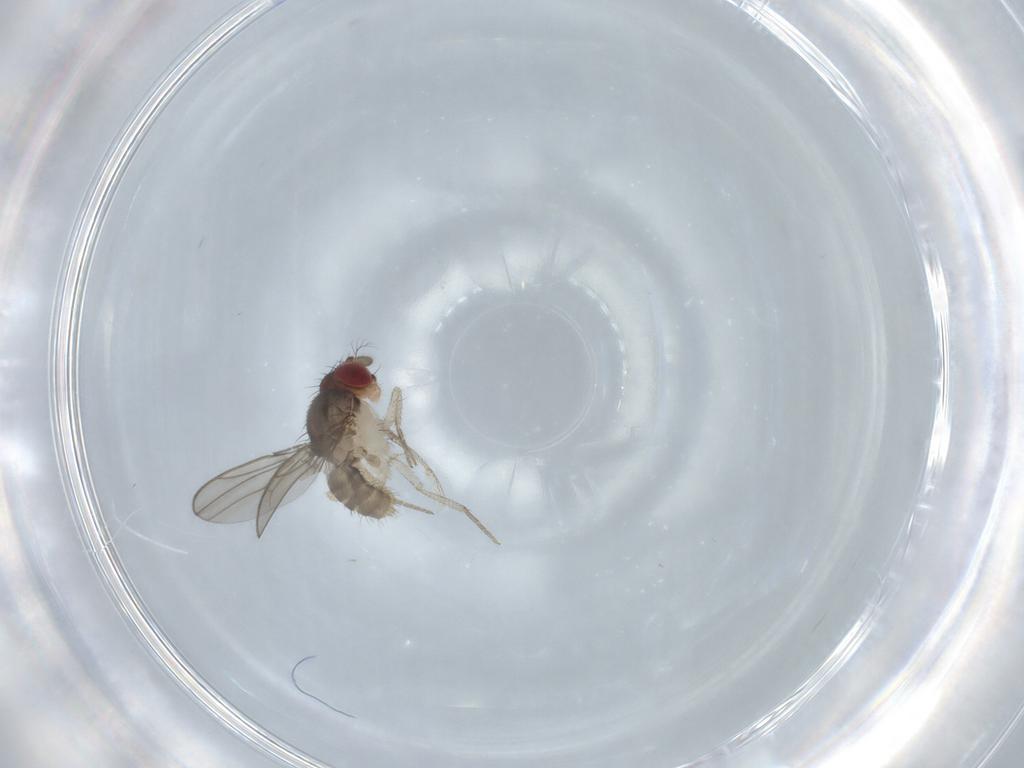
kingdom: Animalia
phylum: Arthropoda
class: Insecta
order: Diptera
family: Drosophilidae
